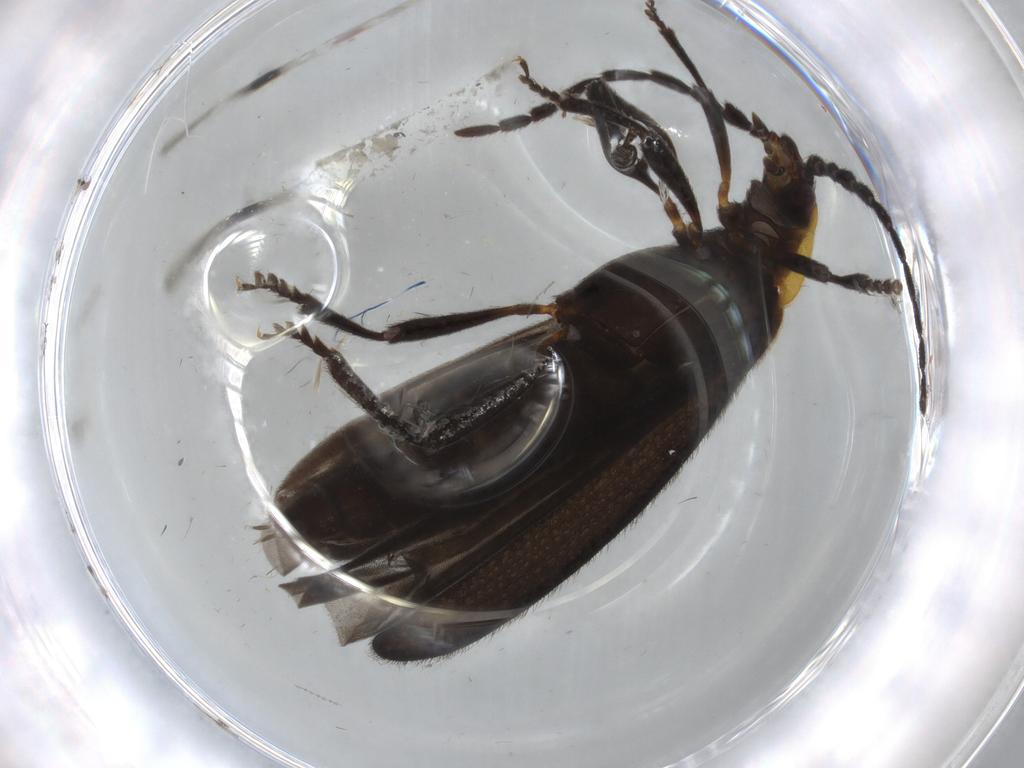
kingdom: Animalia
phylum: Arthropoda
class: Insecta
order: Coleoptera
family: Lycidae
